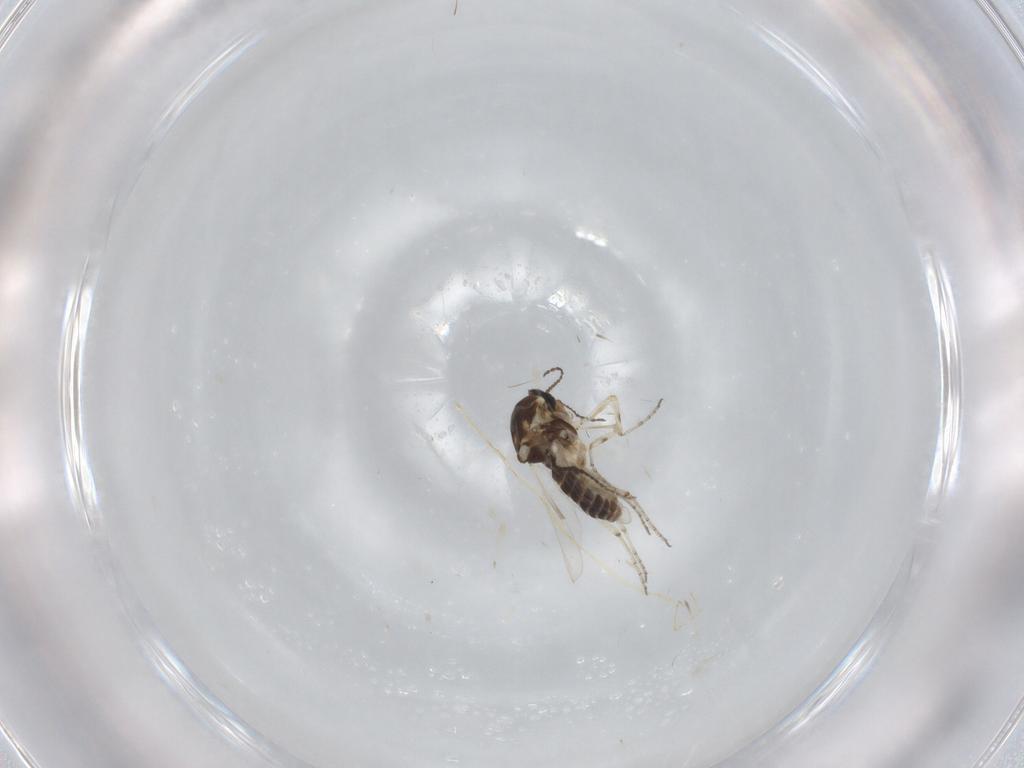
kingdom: Animalia
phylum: Arthropoda
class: Insecta
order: Diptera
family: Ceratopogonidae
